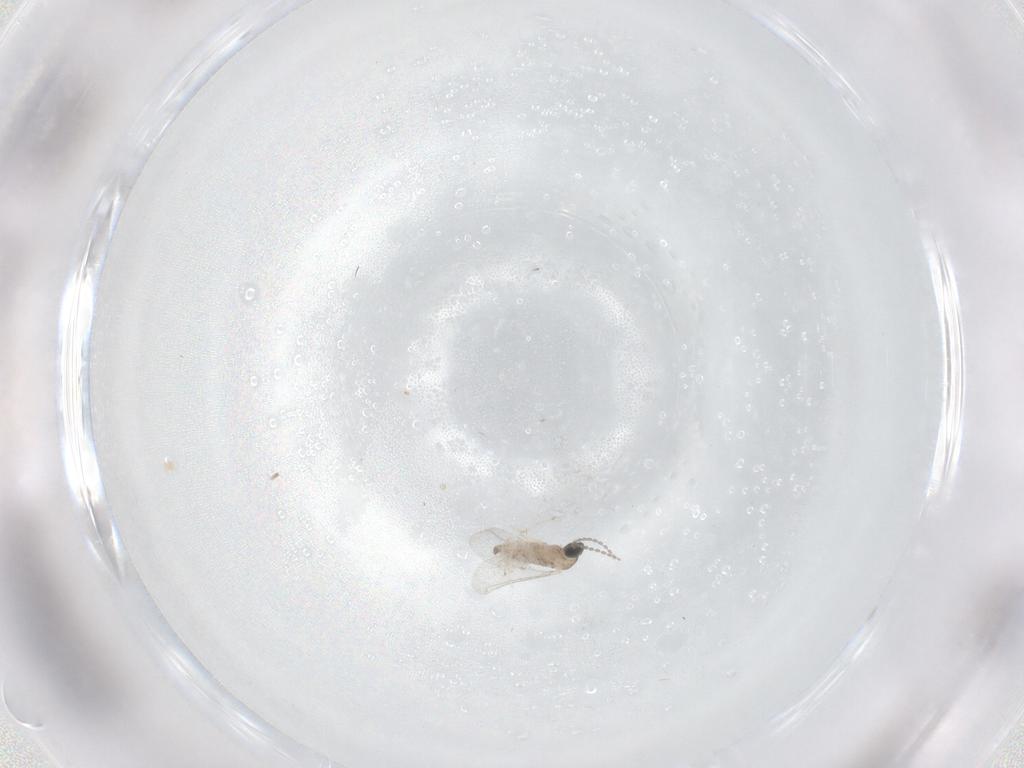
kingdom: Animalia
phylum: Arthropoda
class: Insecta
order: Diptera
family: Cecidomyiidae
